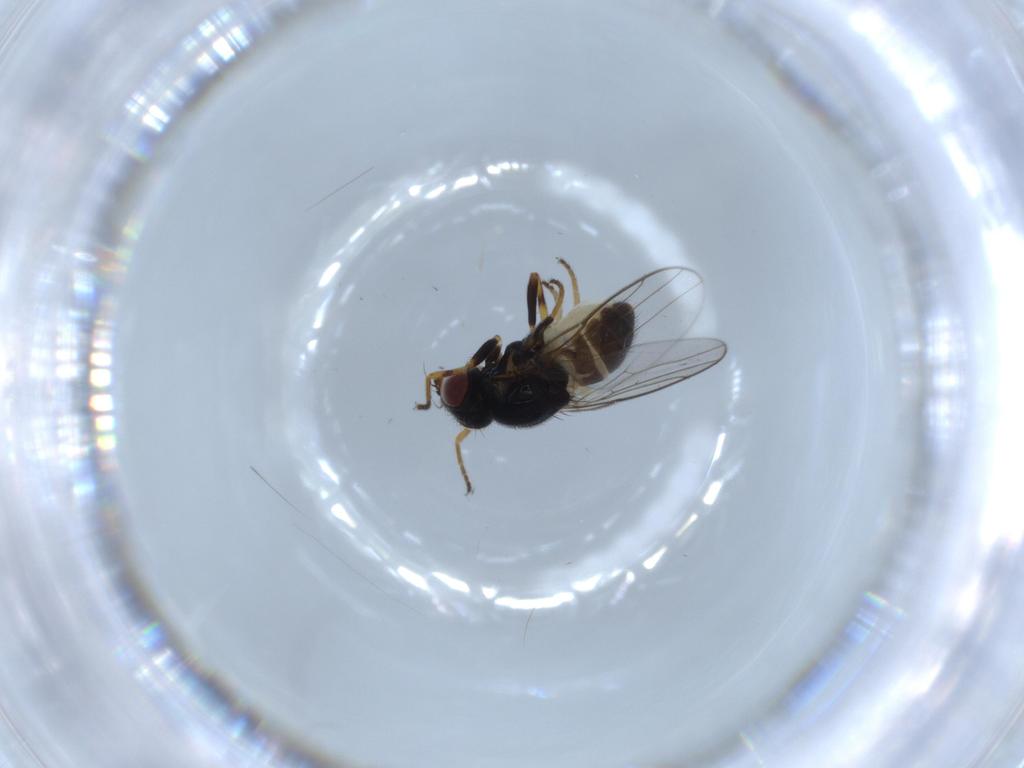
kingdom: Animalia
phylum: Arthropoda
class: Insecta
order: Diptera
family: Chloropidae
